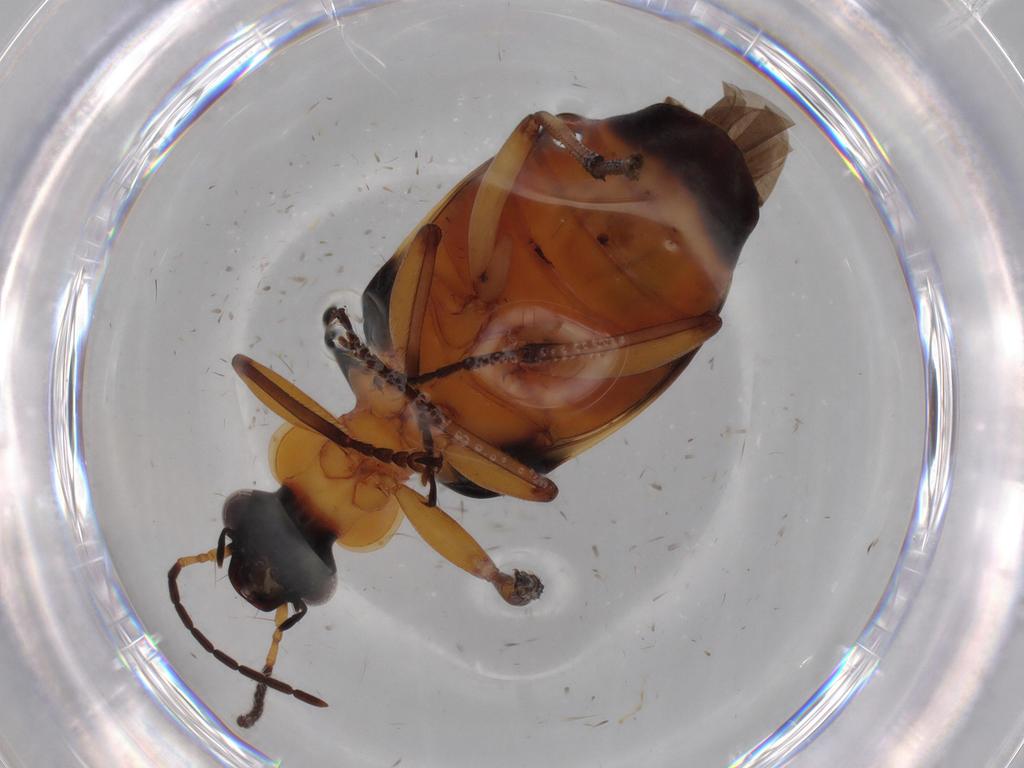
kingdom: Animalia
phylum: Arthropoda
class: Insecta
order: Coleoptera
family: Carabidae
